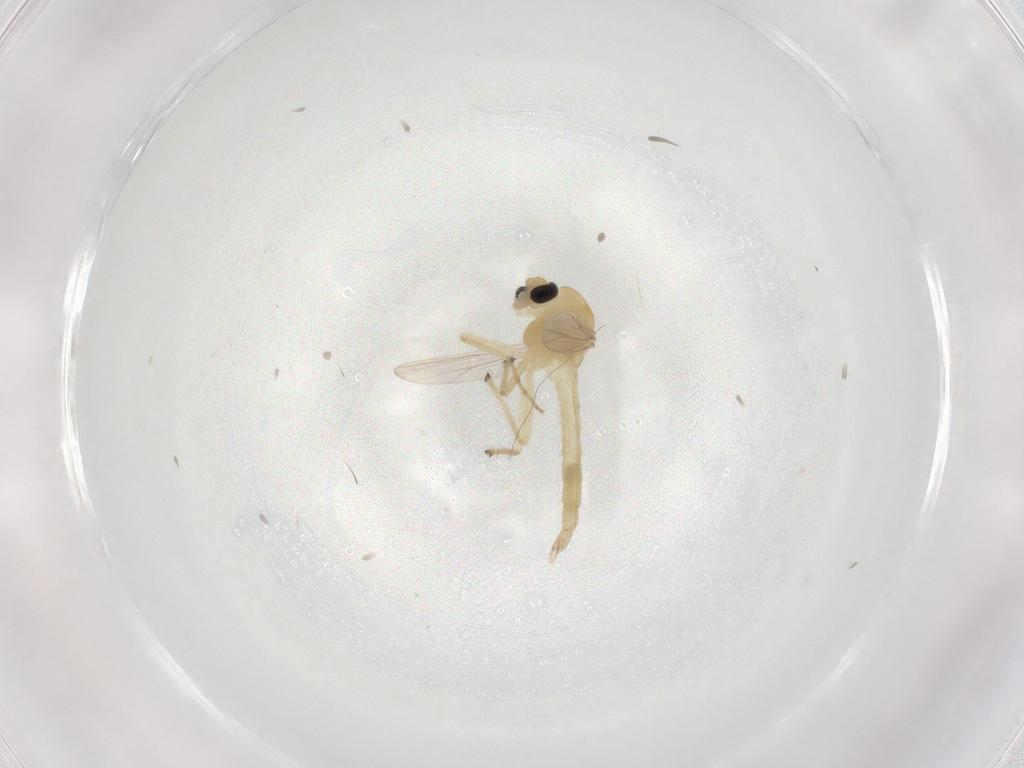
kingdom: Animalia
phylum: Arthropoda
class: Insecta
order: Diptera
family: Chironomidae
